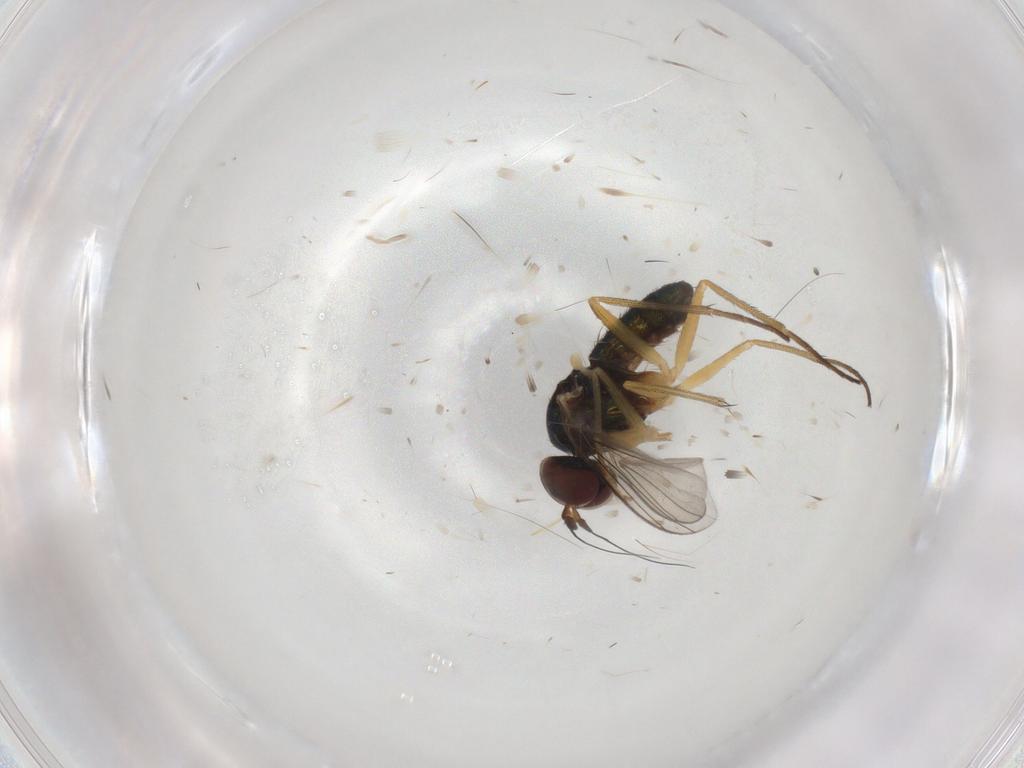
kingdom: Animalia
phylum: Arthropoda
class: Insecta
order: Diptera
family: Dolichopodidae
